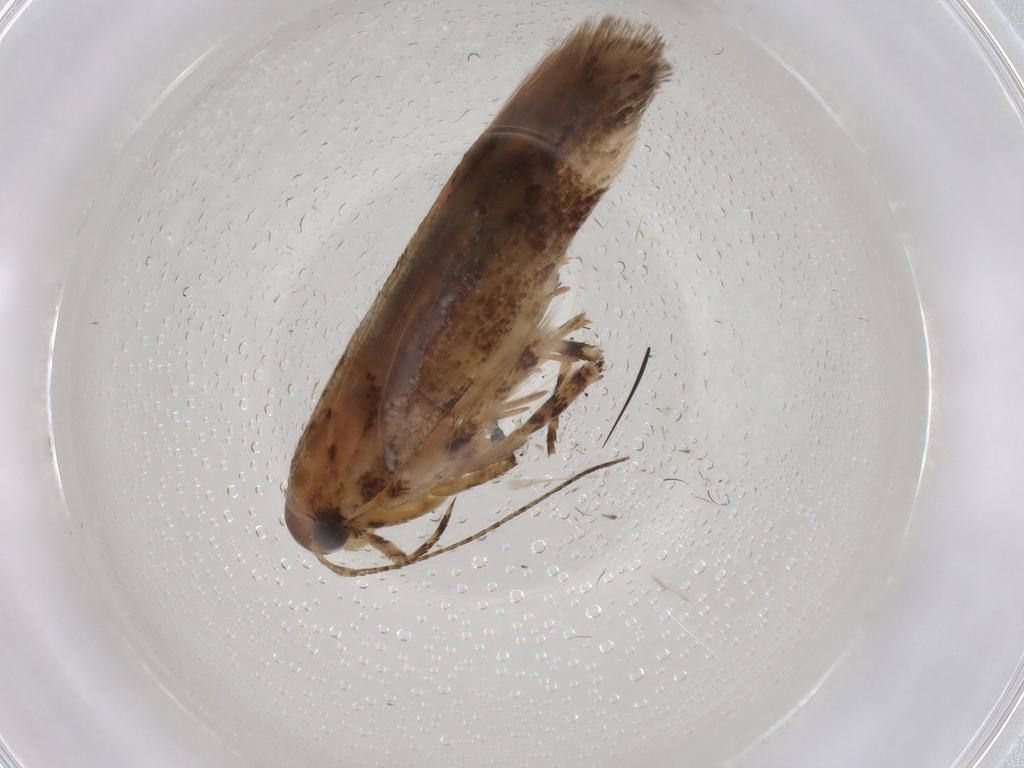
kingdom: Animalia
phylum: Arthropoda
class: Insecta
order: Lepidoptera
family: Gelechiidae
